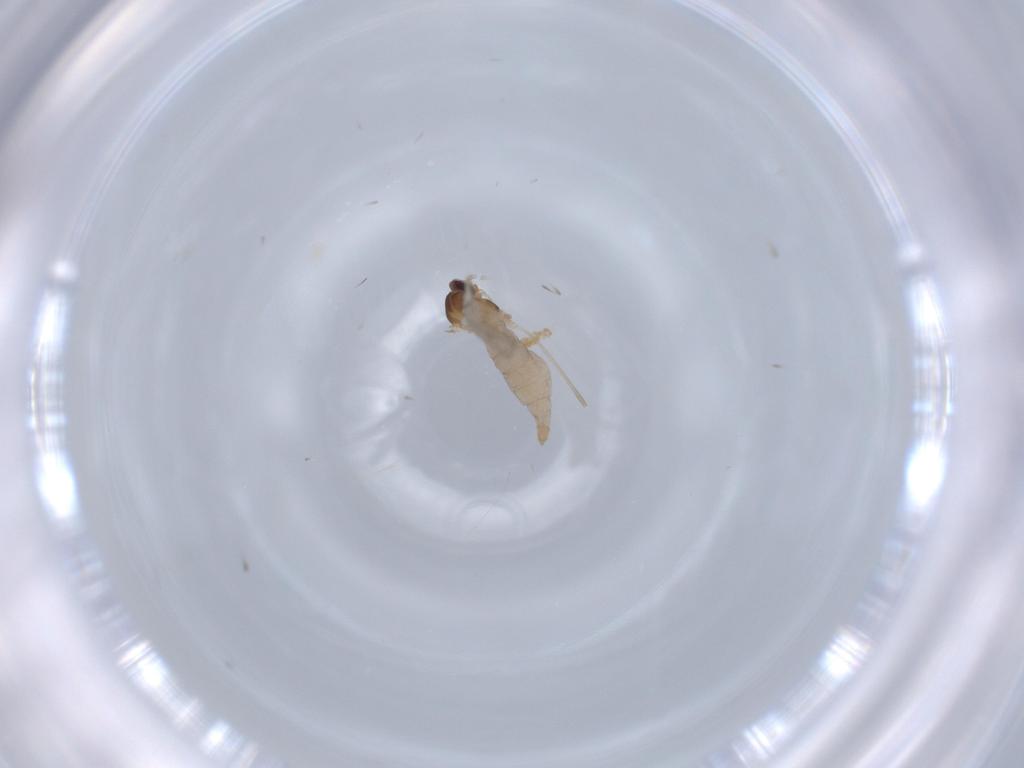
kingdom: Animalia
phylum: Arthropoda
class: Insecta
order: Diptera
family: Cecidomyiidae
